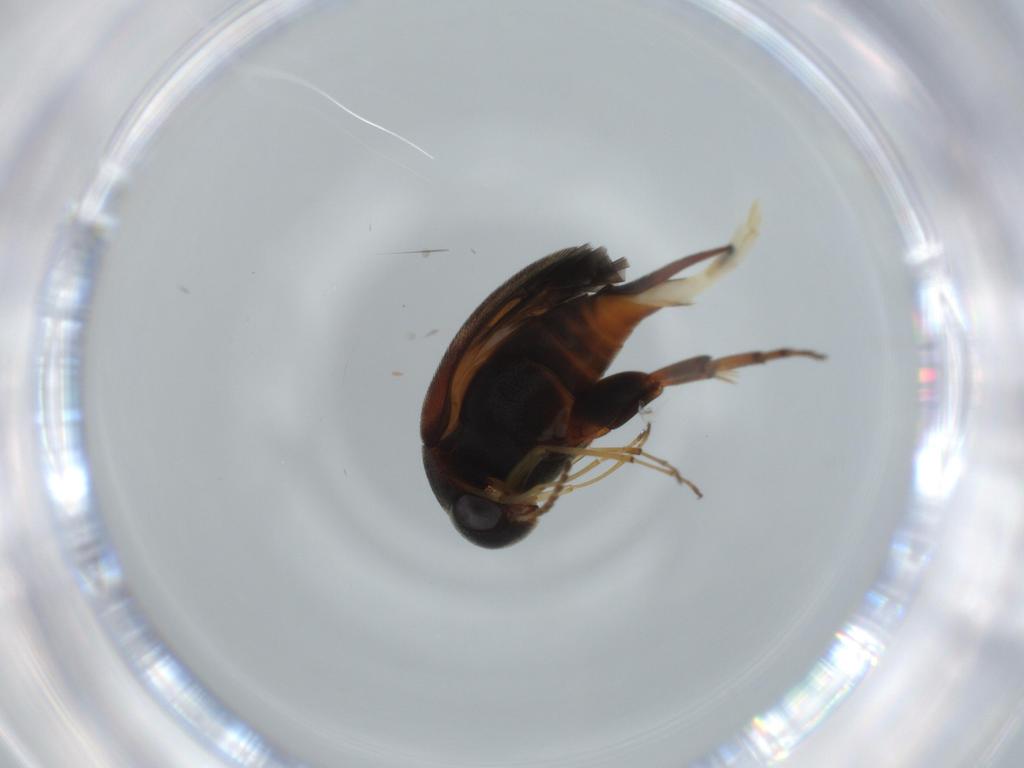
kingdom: Animalia
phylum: Arthropoda
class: Insecta
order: Coleoptera
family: Mordellidae
